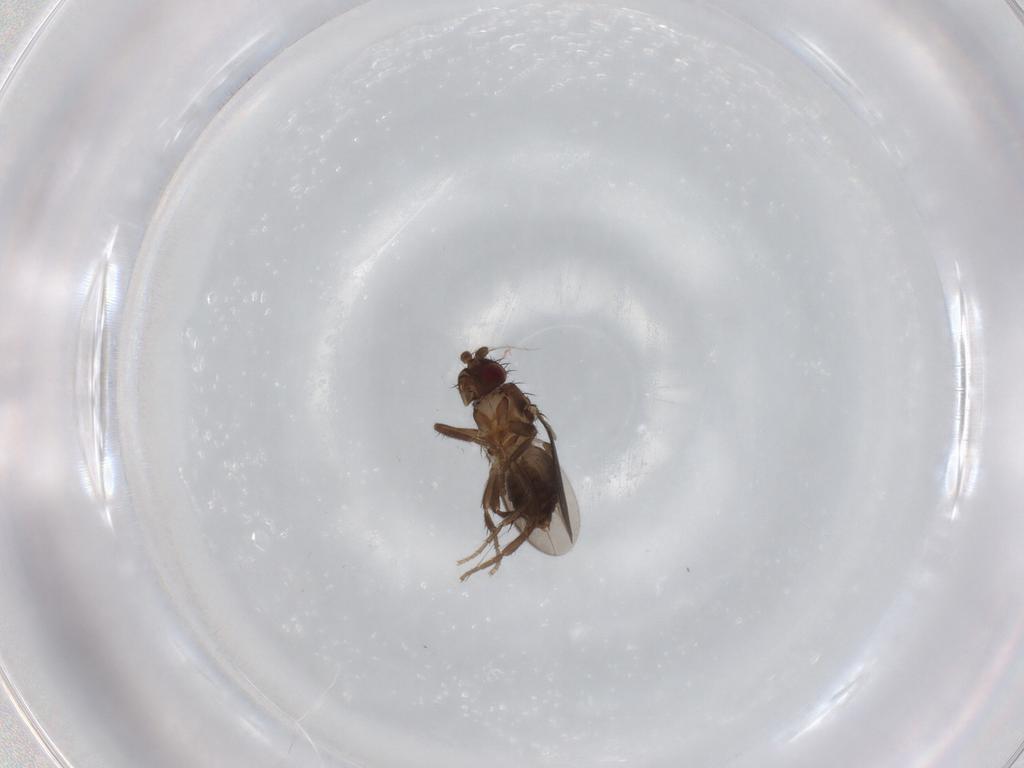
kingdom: Animalia
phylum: Arthropoda
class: Insecta
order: Diptera
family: Sphaeroceridae
